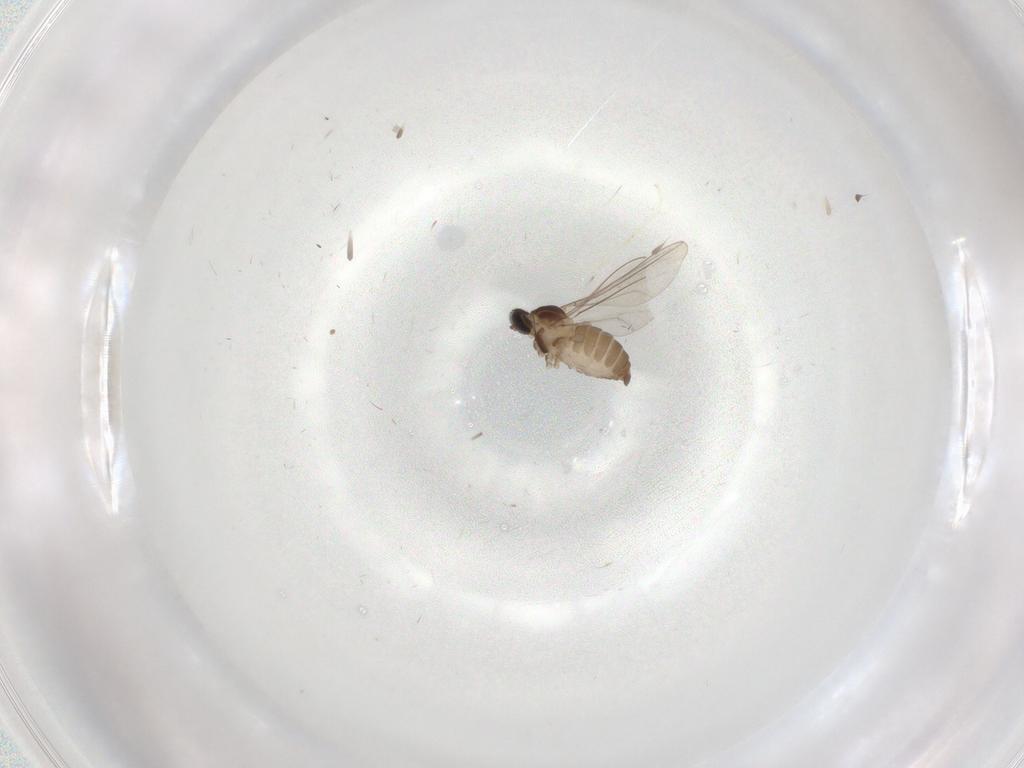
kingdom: Animalia
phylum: Arthropoda
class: Insecta
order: Diptera
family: Cecidomyiidae
